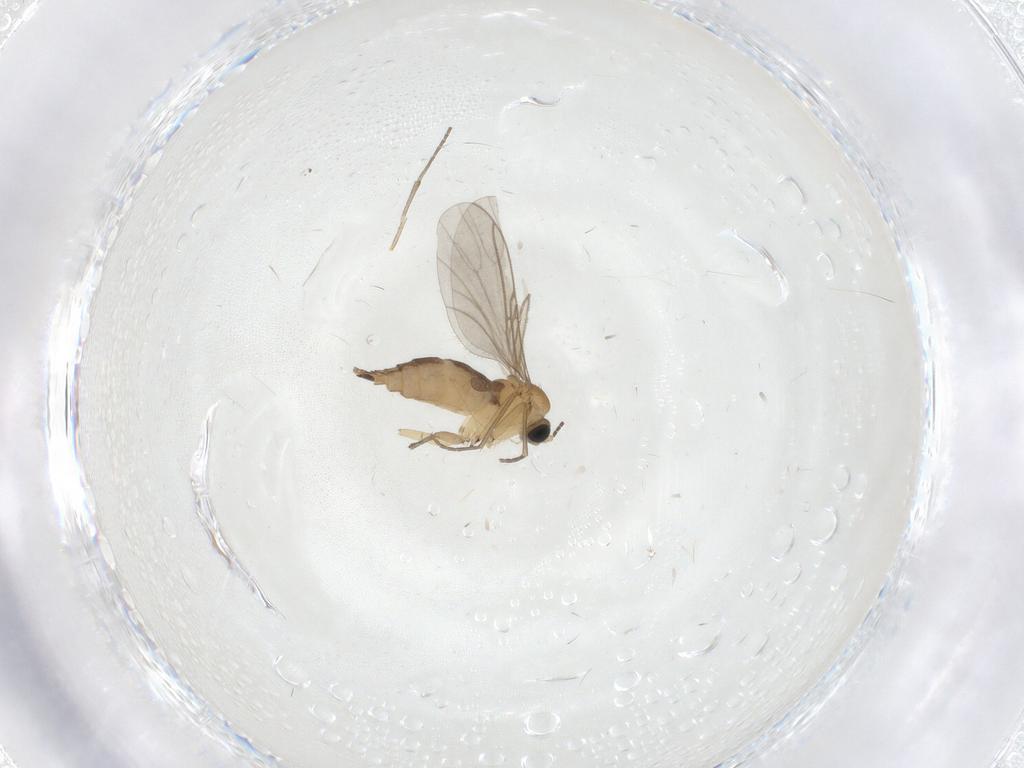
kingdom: Animalia
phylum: Arthropoda
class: Insecta
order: Diptera
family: Sciaridae
